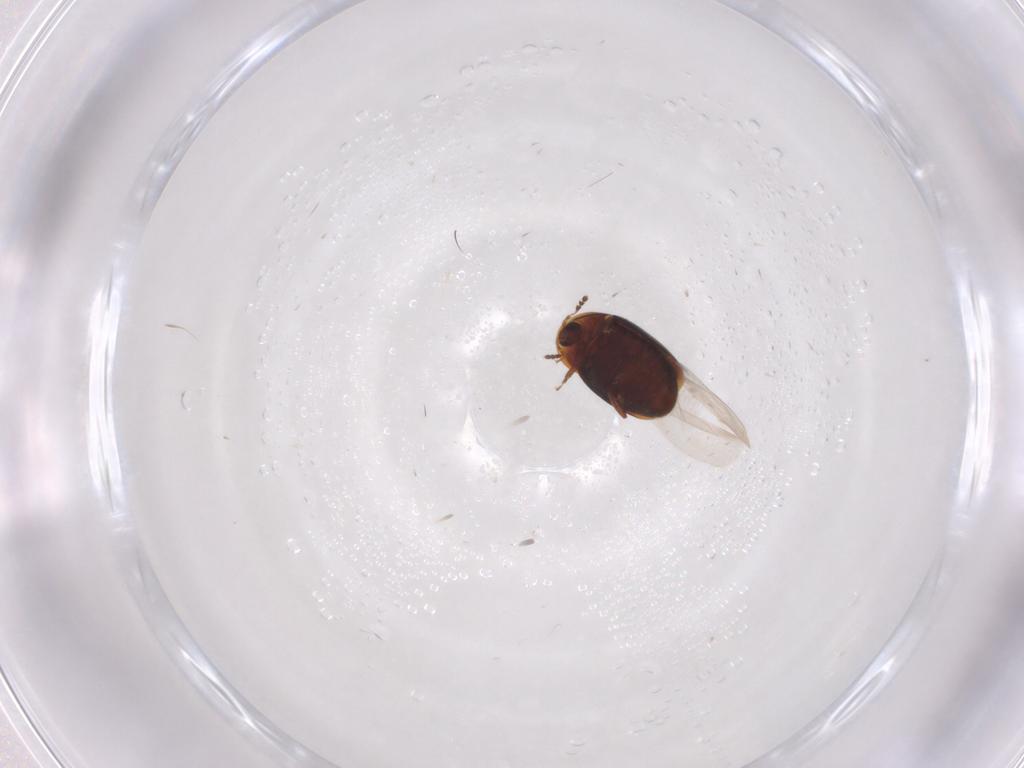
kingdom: Animalia
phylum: Arthropoda
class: Insecta
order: Coleoptera
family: Corylophidae
